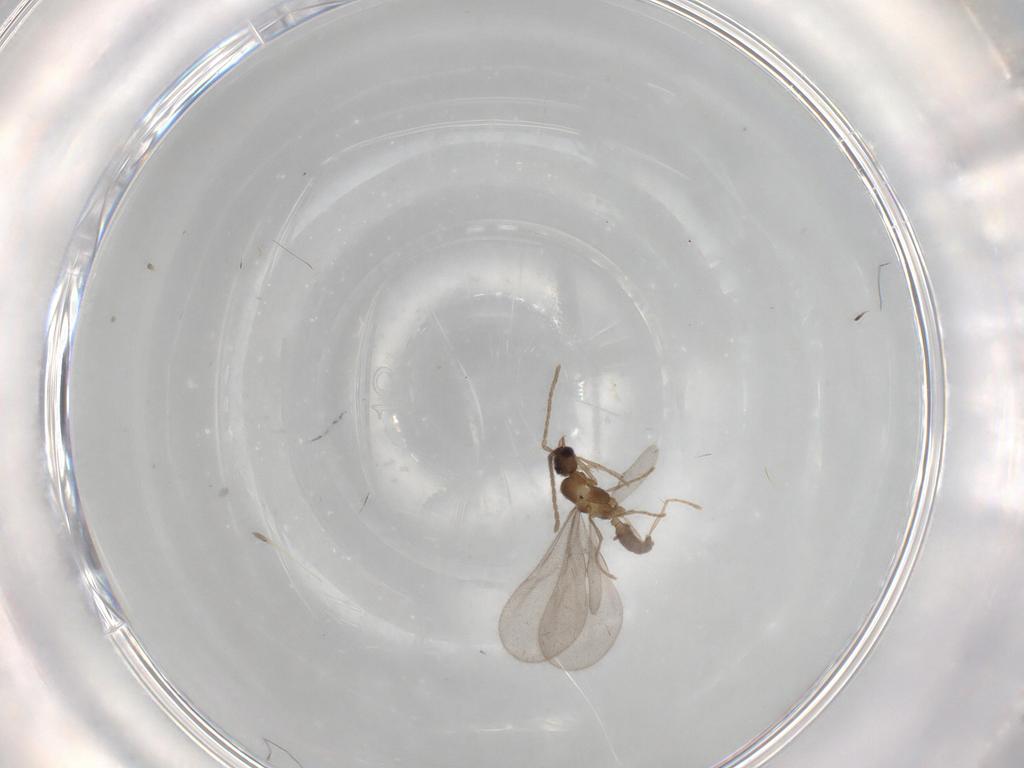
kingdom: Animalia
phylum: Arthropoda
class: Insecta
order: Hymenoptera
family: Formicidae
